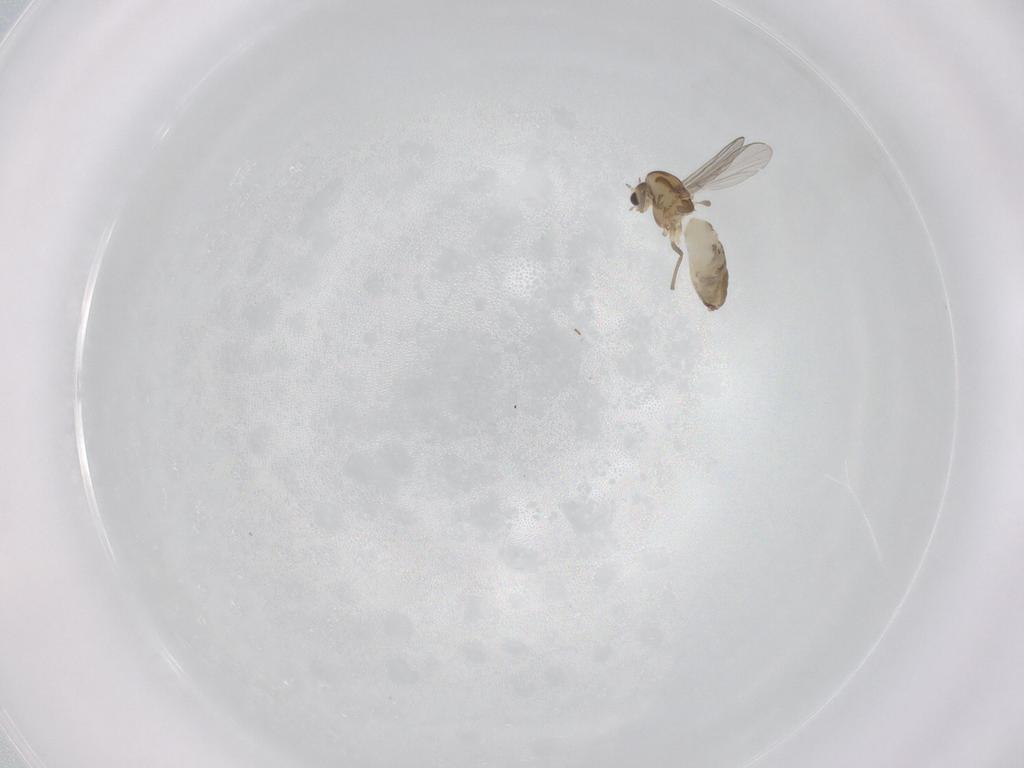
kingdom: Animalia
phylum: Arthropoda
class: Insecta
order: Diptera
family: Chironomidae
